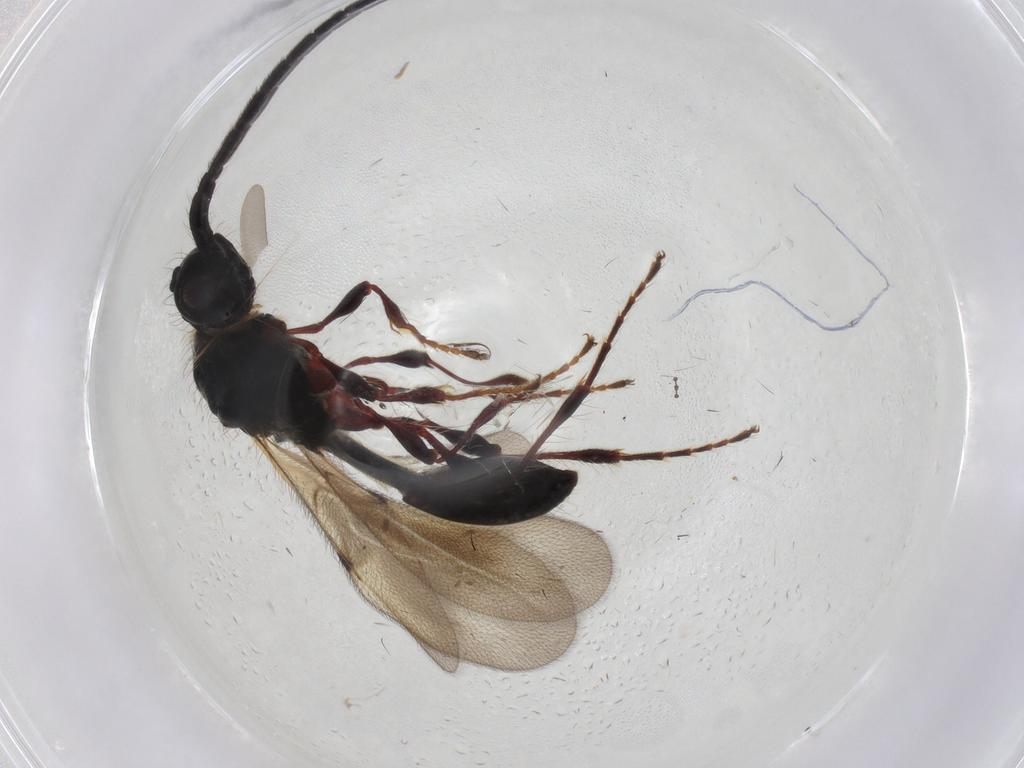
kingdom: Animalia
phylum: Arthropoda
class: Insecta
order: Hymenoptera
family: Diapriidae
